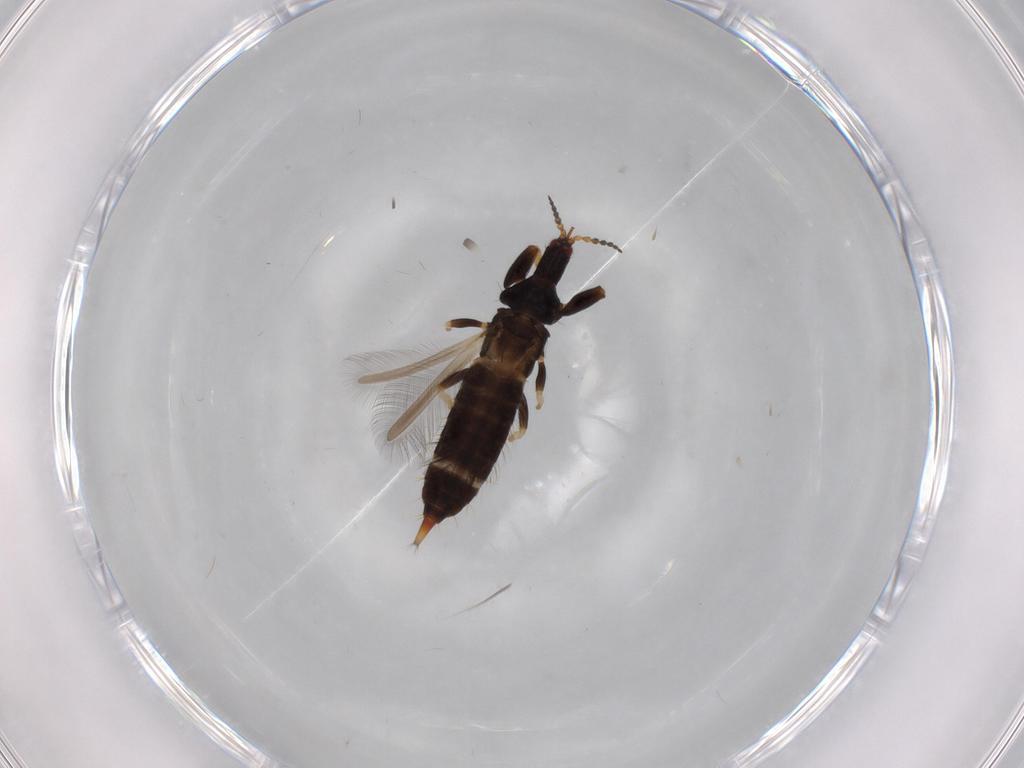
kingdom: Animalia
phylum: Arthropoda
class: Insecta
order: Thysanoptera
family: Phlaeothripidae
